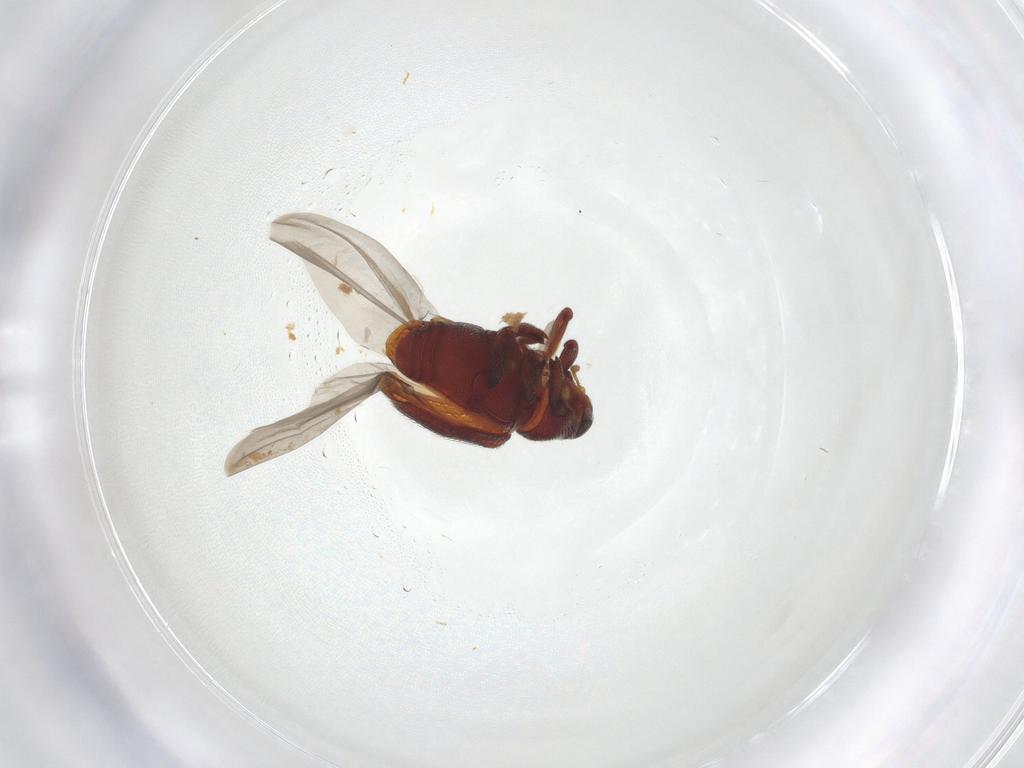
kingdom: Animalia
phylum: Arthropoda
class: Insecta
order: Coleoptera
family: Curculionidae
